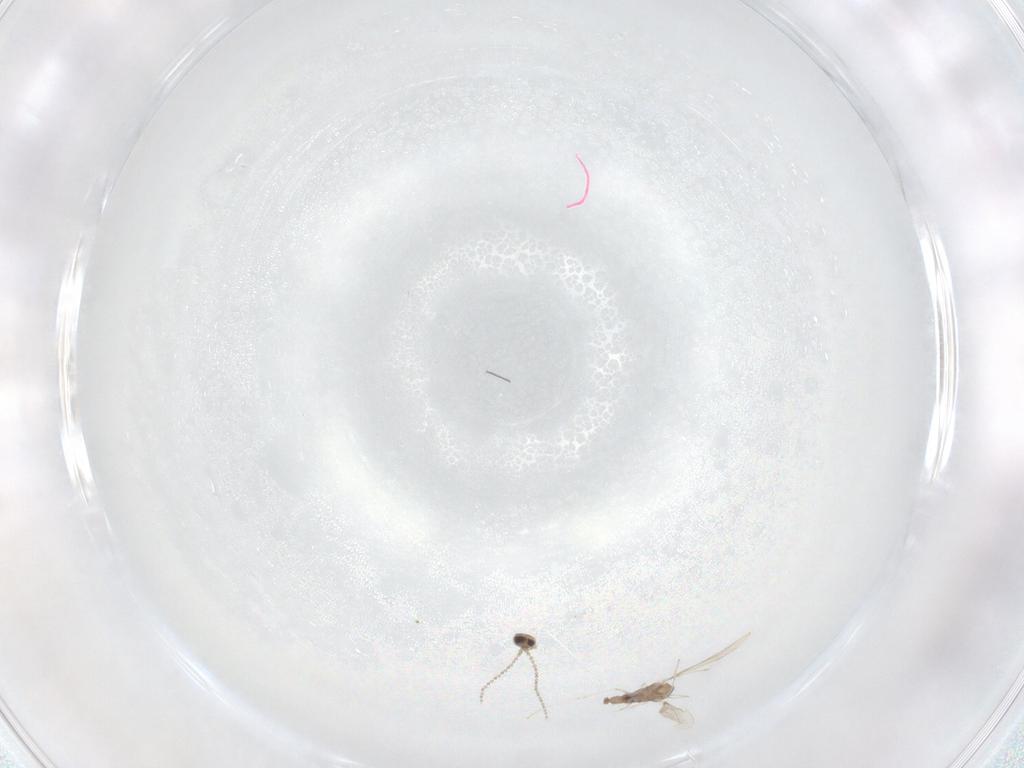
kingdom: Animalia
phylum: Arthropoda
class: Insecta
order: Diptera
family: Cecidomyiidae
